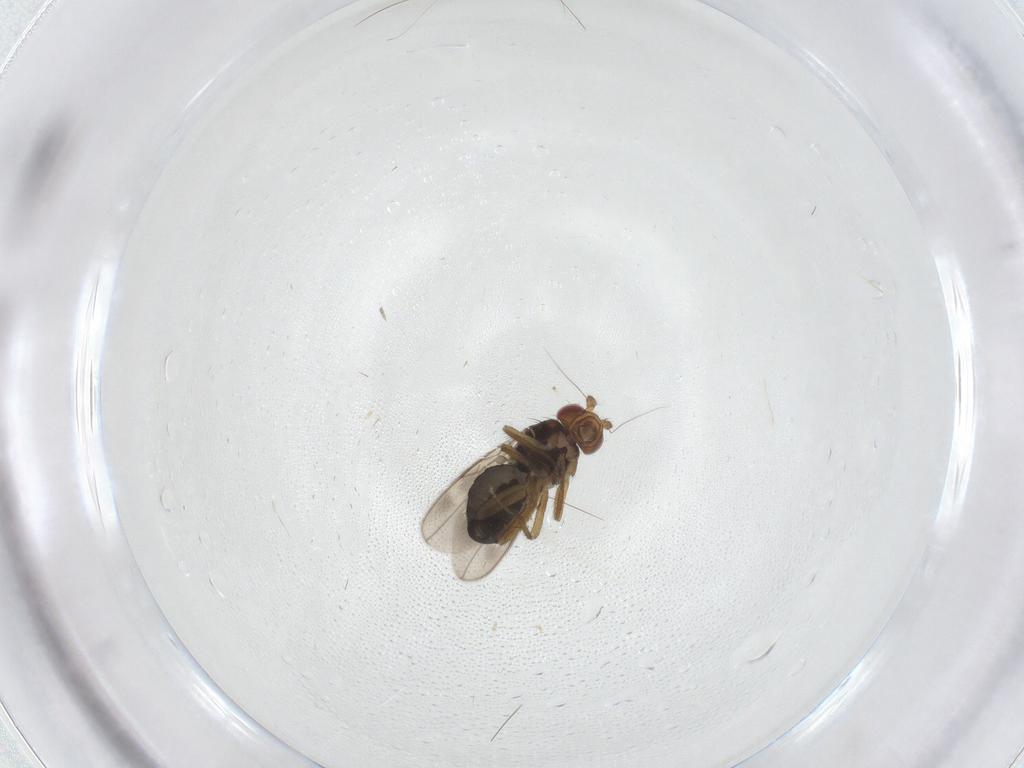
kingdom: Animalia
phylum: Arthropoda
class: Insecta
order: Diptera
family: Sphaeroceridae
